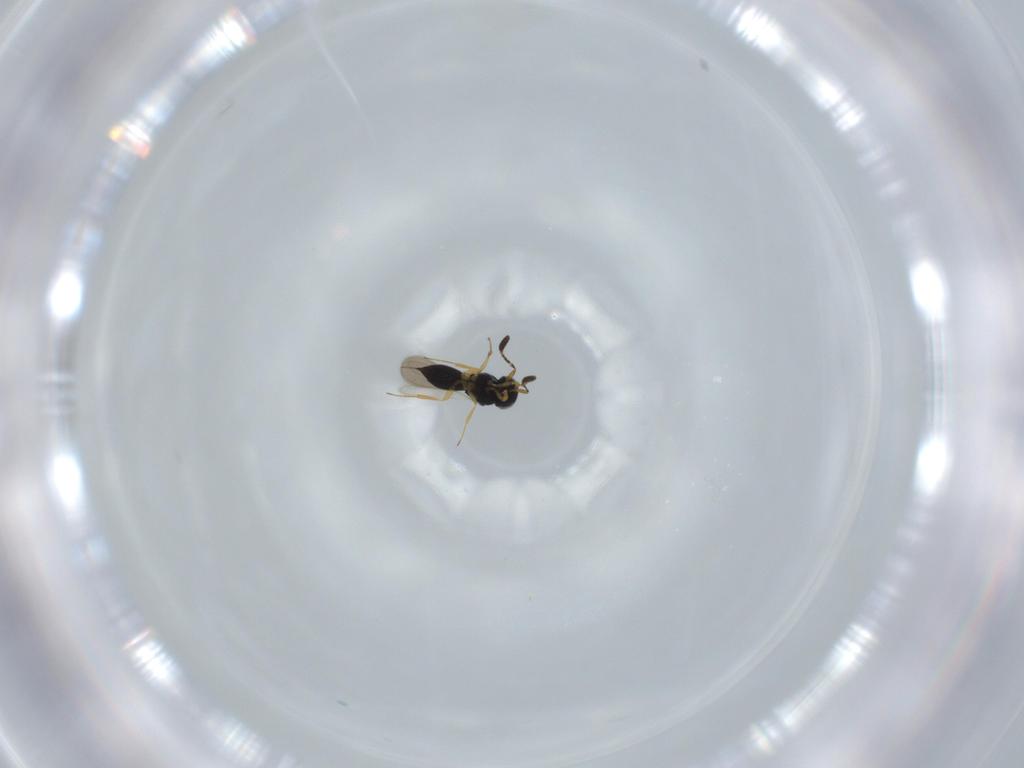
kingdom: Animalia
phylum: Arthropoda
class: Insecta
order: Hymenoptera
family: Scelionidae
